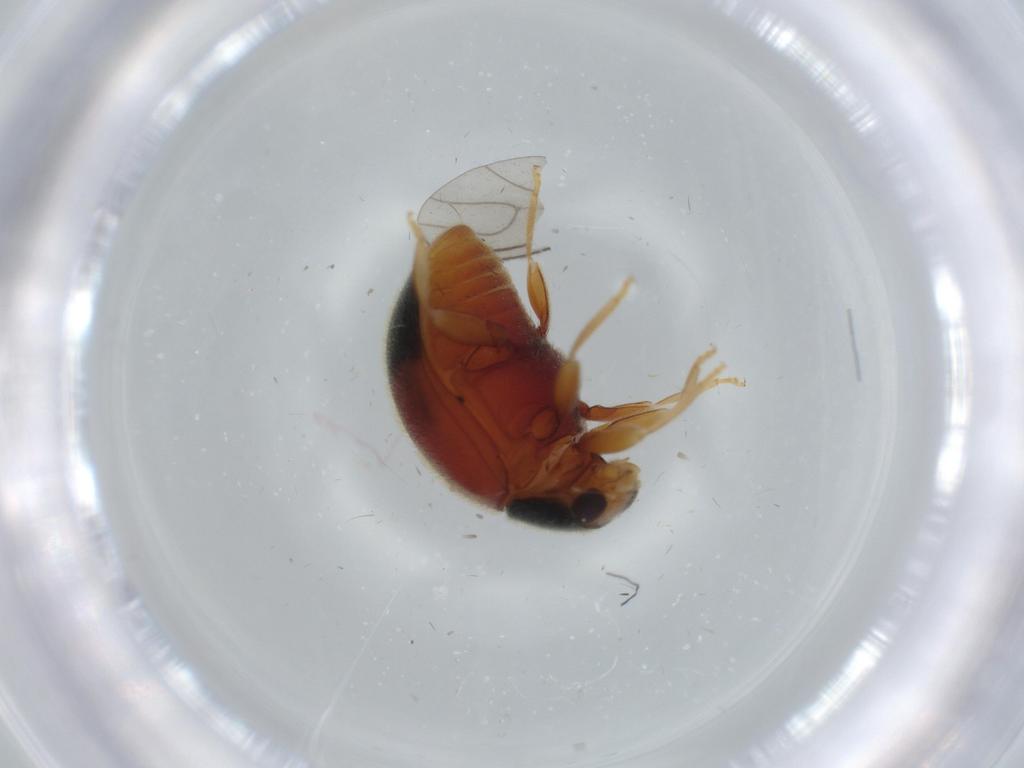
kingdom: Animalia
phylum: Arthropoda
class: Insecta
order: Coleoptera
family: Coccinellidae
